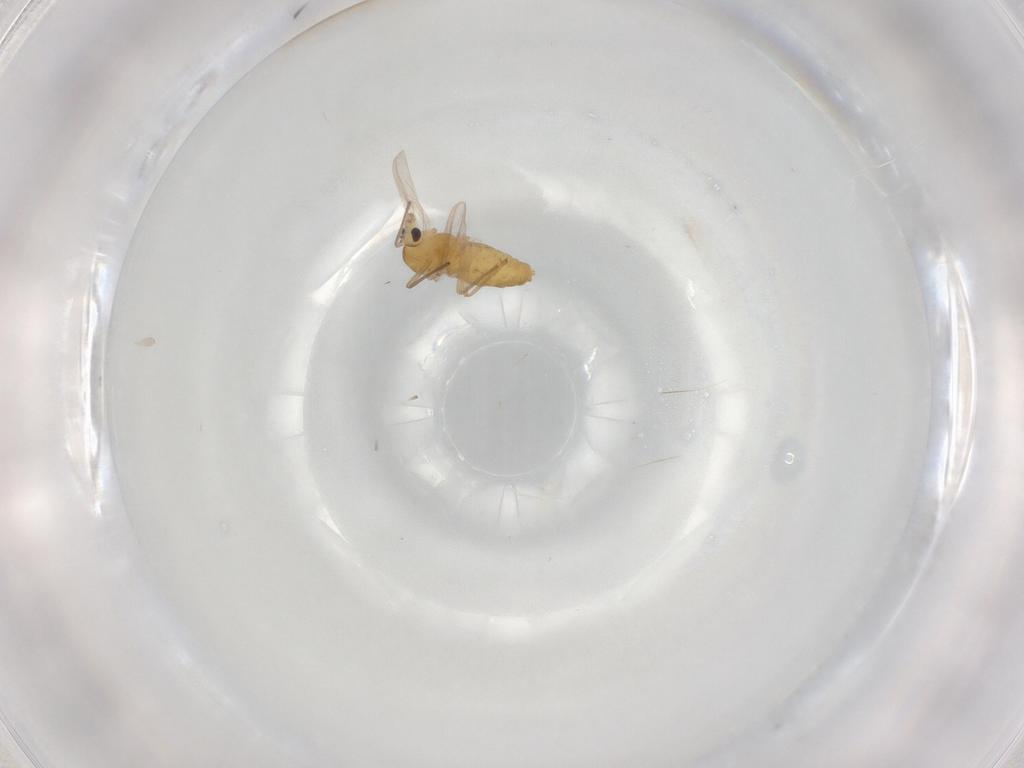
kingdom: Animalia
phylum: Arthropoda
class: Insecta
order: Diptera
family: Chironomidae
